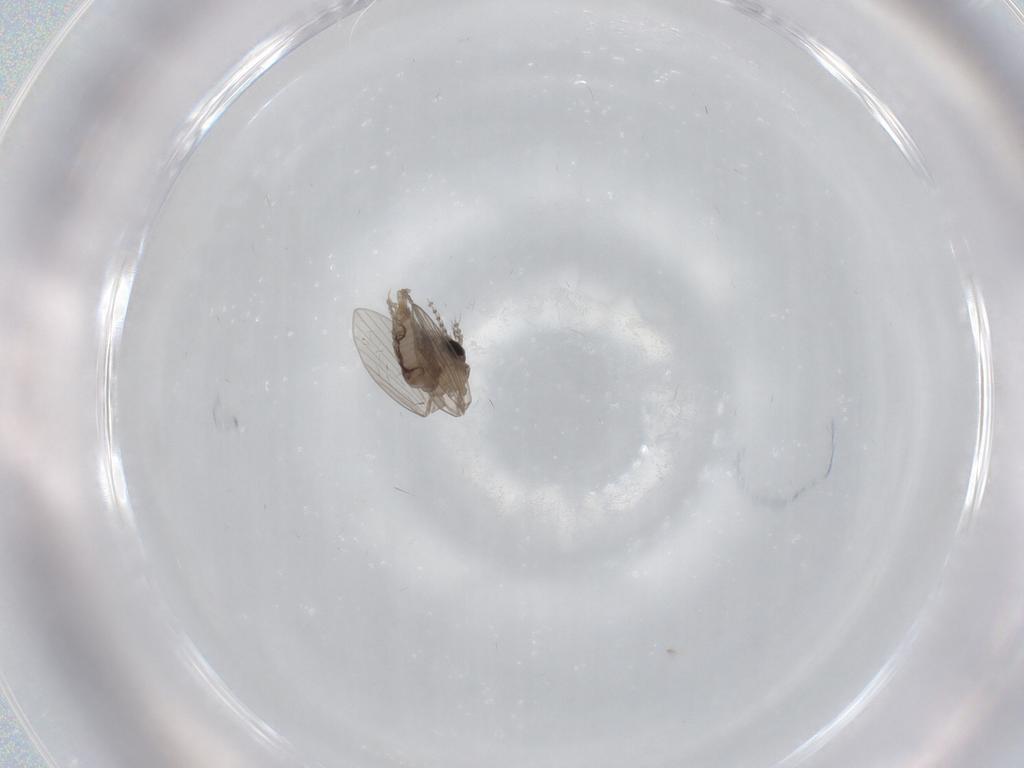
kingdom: Animalia
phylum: Arthropoda
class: Insecta
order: Diptera
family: Psychodidae
